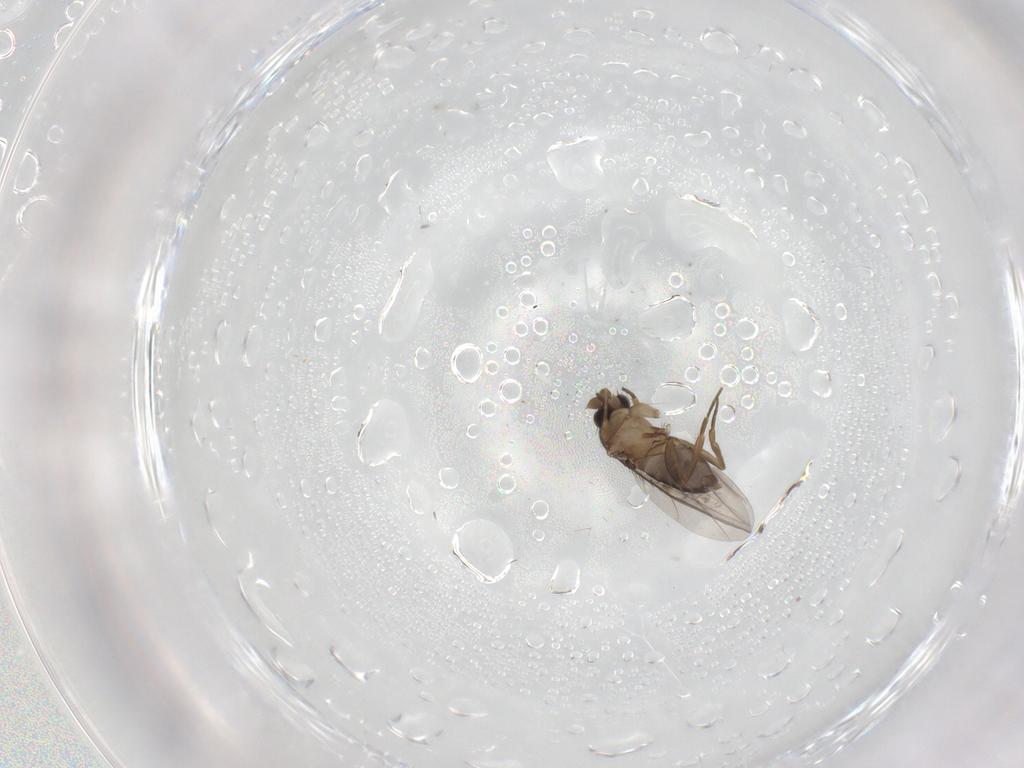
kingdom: Animalia
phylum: Arthropoda
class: Insecta
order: Diptera
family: Phoridae
